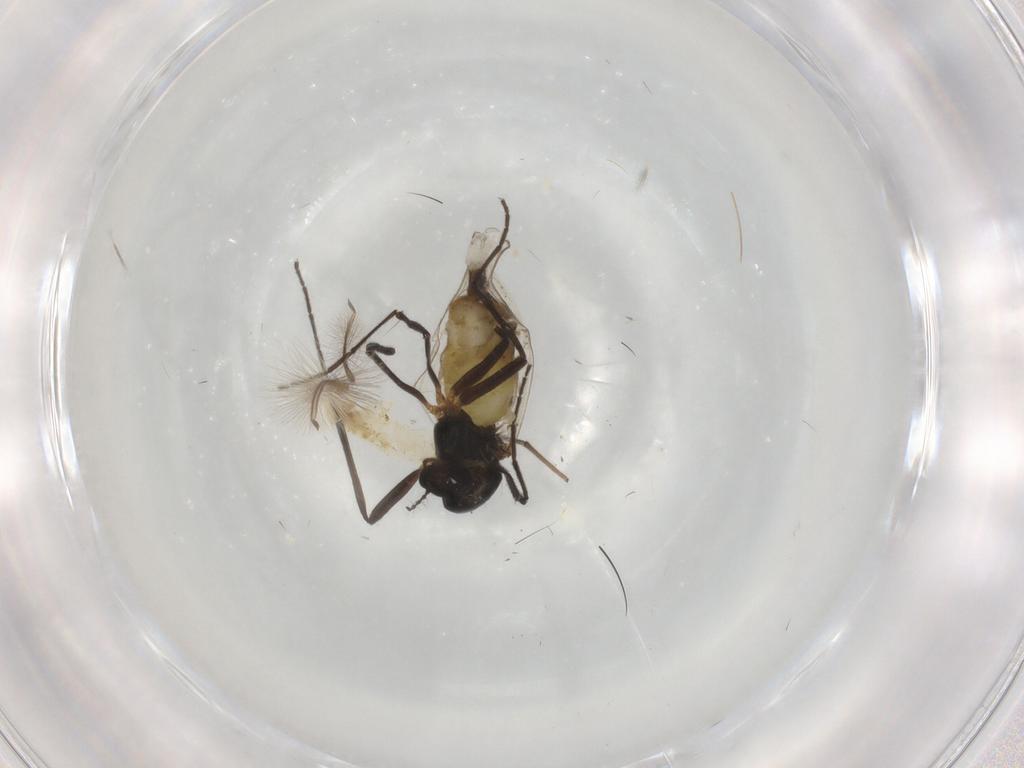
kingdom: Animalia
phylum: Arthropoda
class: Insecta
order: Diptera
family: Ceratopogonidae
